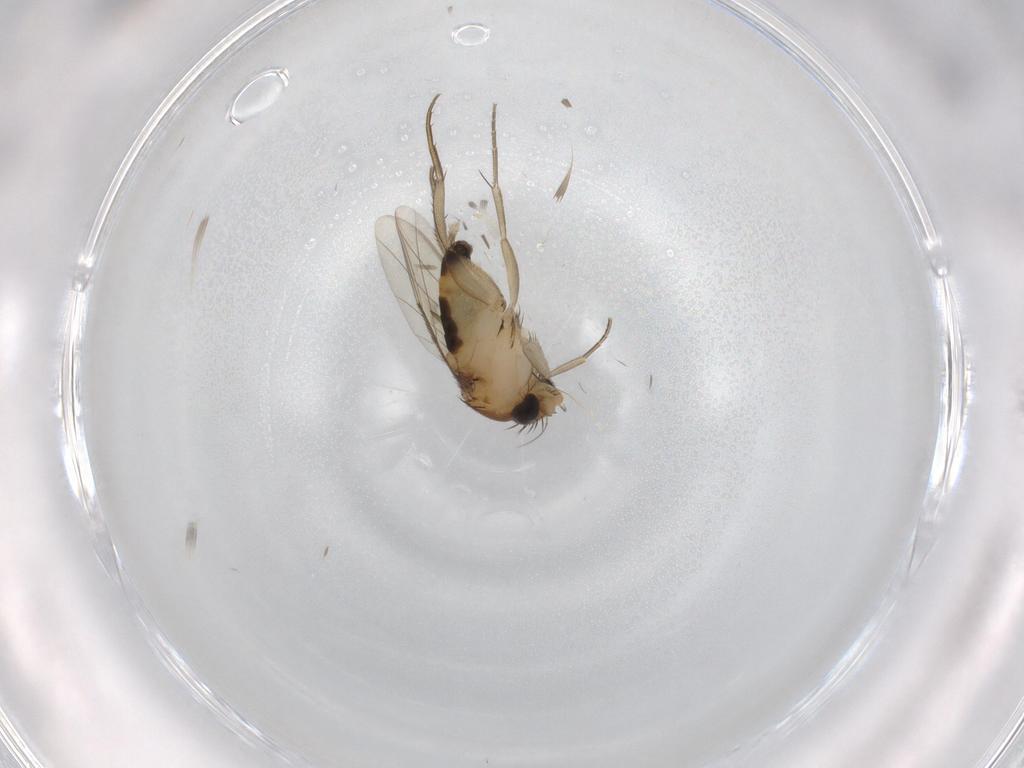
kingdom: Animalia
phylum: Arthropoda
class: Insecta
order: Diptera
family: Phoridae
